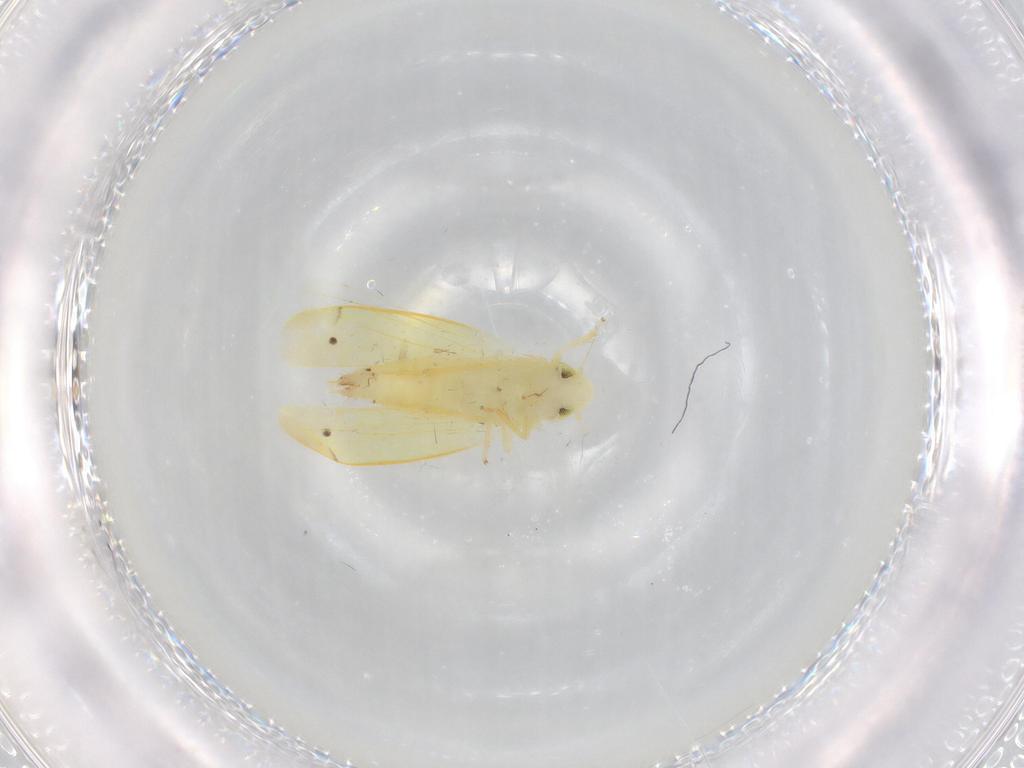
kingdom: Animalia
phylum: Arthropoda
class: Insecta
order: Hemiptera
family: Cicadellidae
